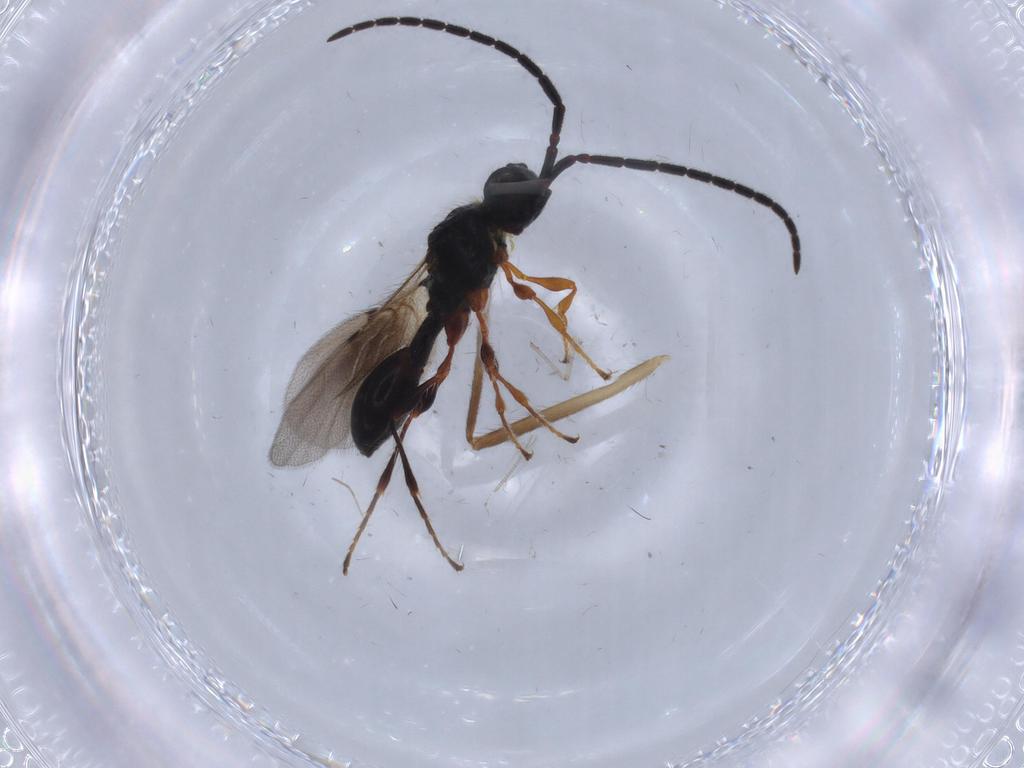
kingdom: Animalia
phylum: Arthropoda
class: Insecta
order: Hymenoptera
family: Diapriidae
